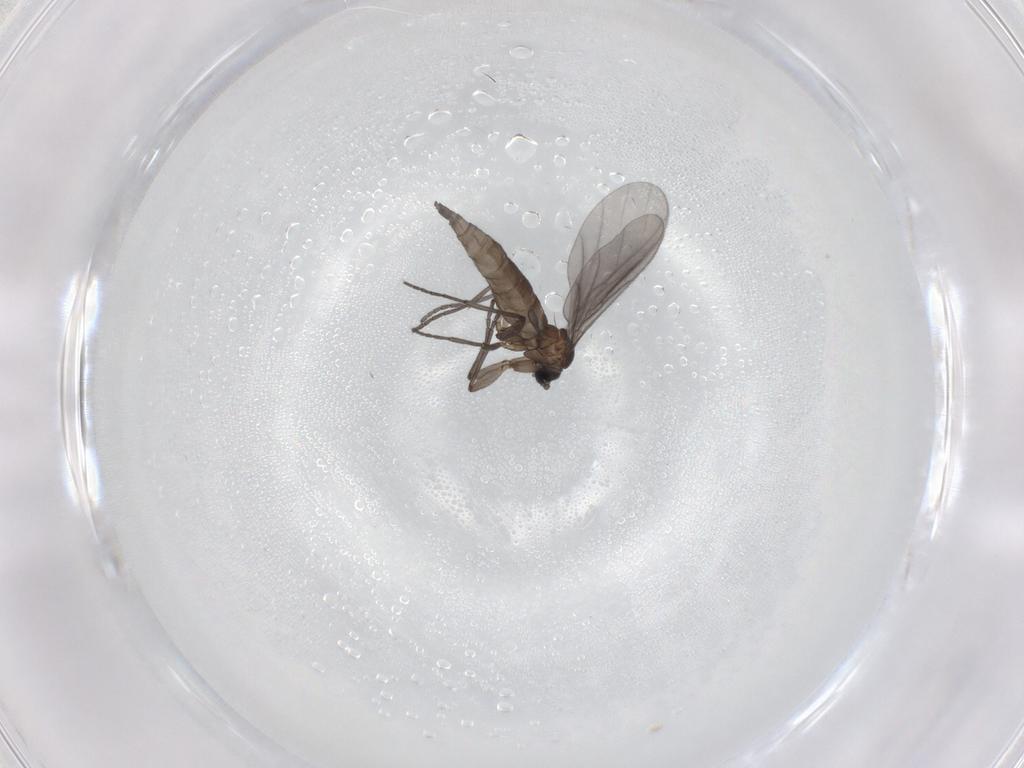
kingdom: Animalia
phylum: Arthropoda
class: Insecta
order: Diptera
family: Sciaridae
